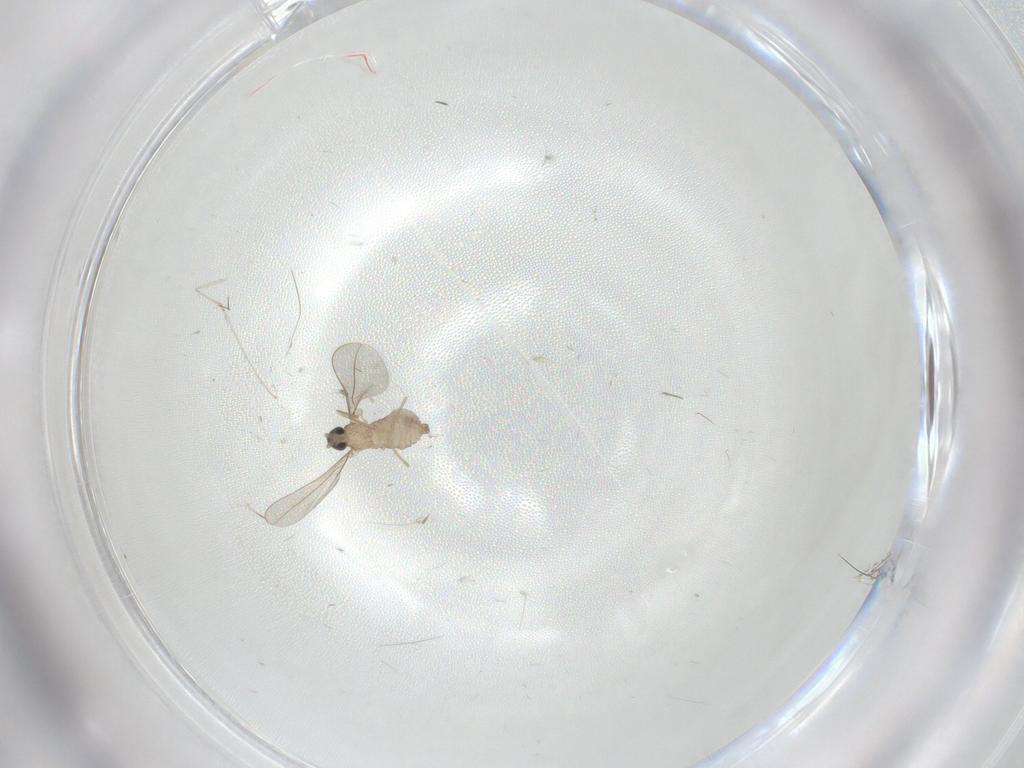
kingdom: Animalia
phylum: Arthropoda
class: Insecta
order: Diptera
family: Cecidomyiidae
